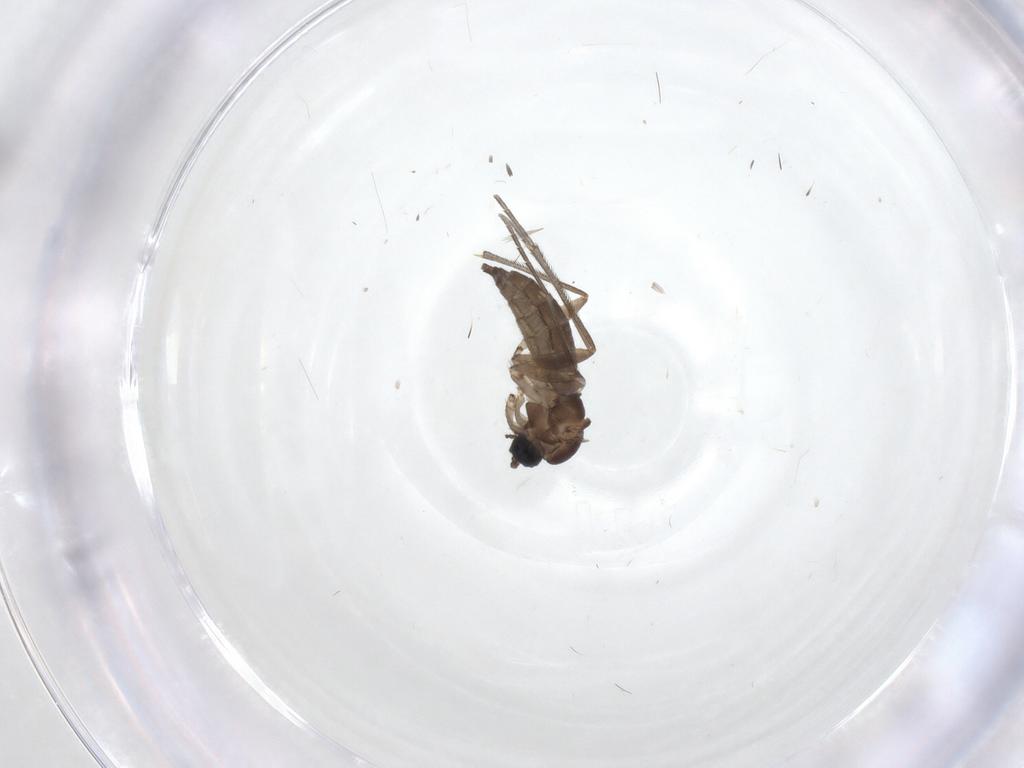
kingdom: Animalia
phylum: Arthropoda
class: Insecta
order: Diptera
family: Sciaridae
